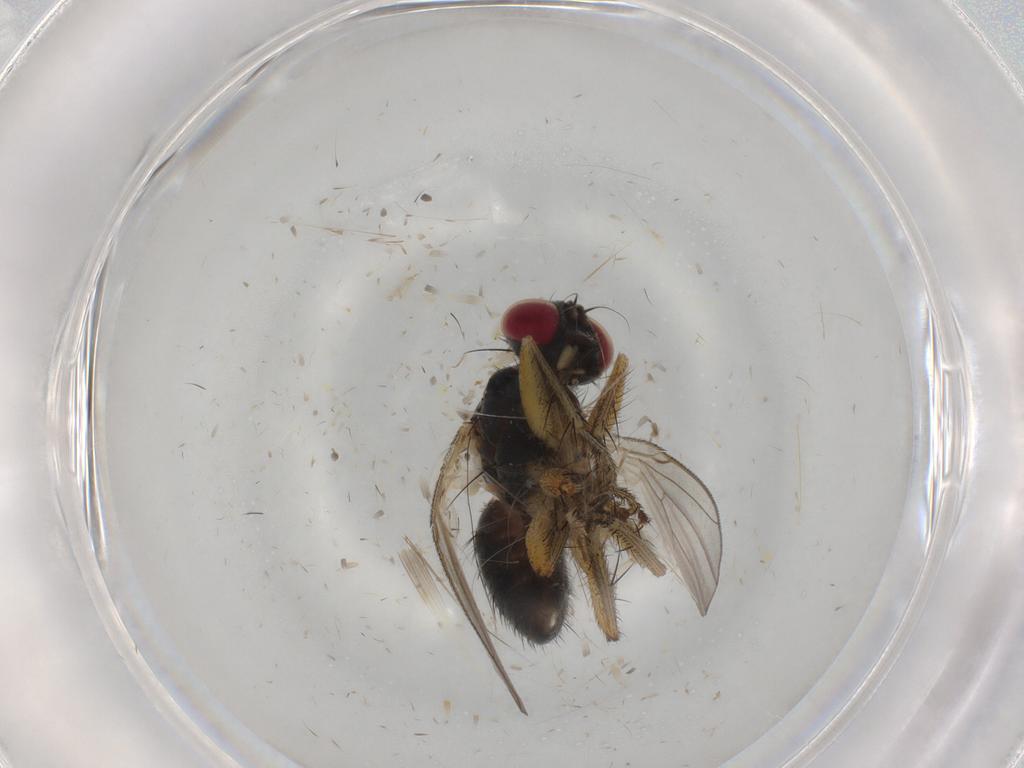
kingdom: Animalia
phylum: Arthropoda
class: Insecta
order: Diptera
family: Muscidae
